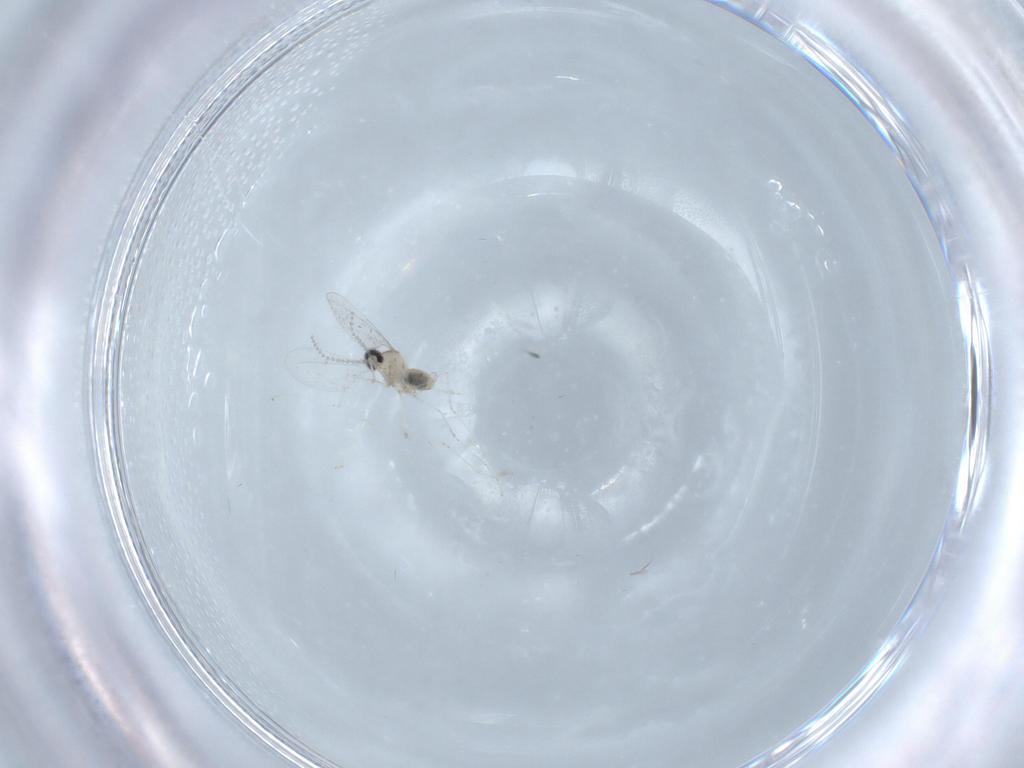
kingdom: Animalia
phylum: Arthropoda
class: Insecta
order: Diptera
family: Cecidomyiidae
